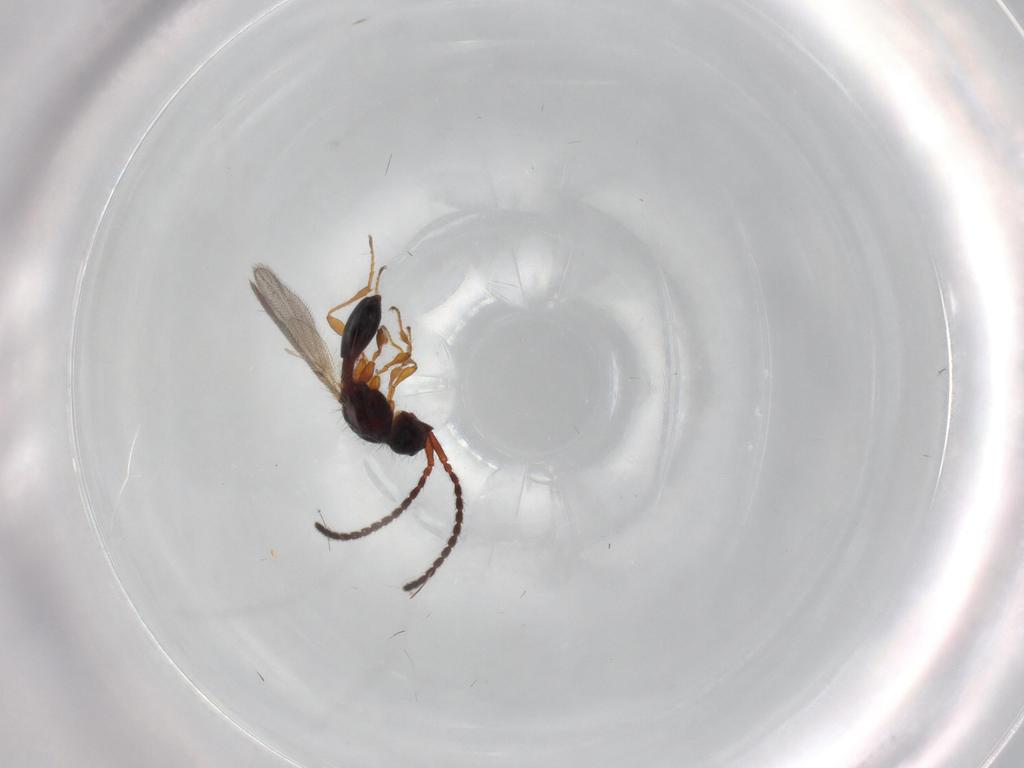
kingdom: Animalia
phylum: Arthropoda
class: Insecta
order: Hymenoptera
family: Diapriidae
